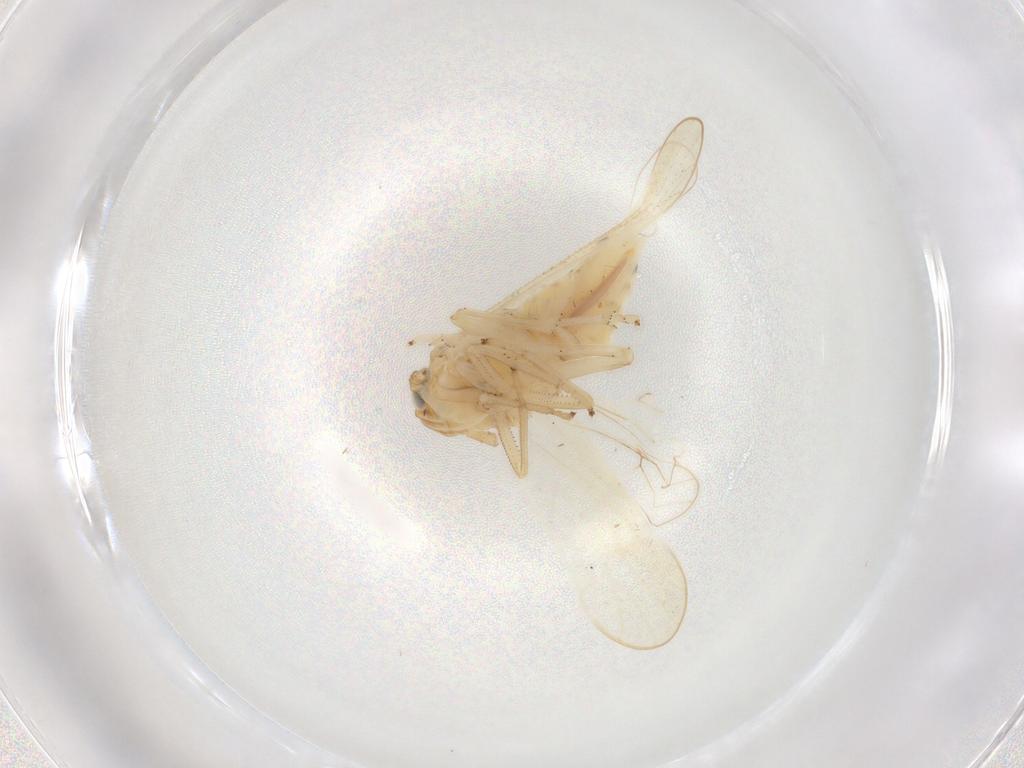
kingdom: Animalia
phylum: Arthropoda
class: Insecta
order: Hemiptera
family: Delphacidae
